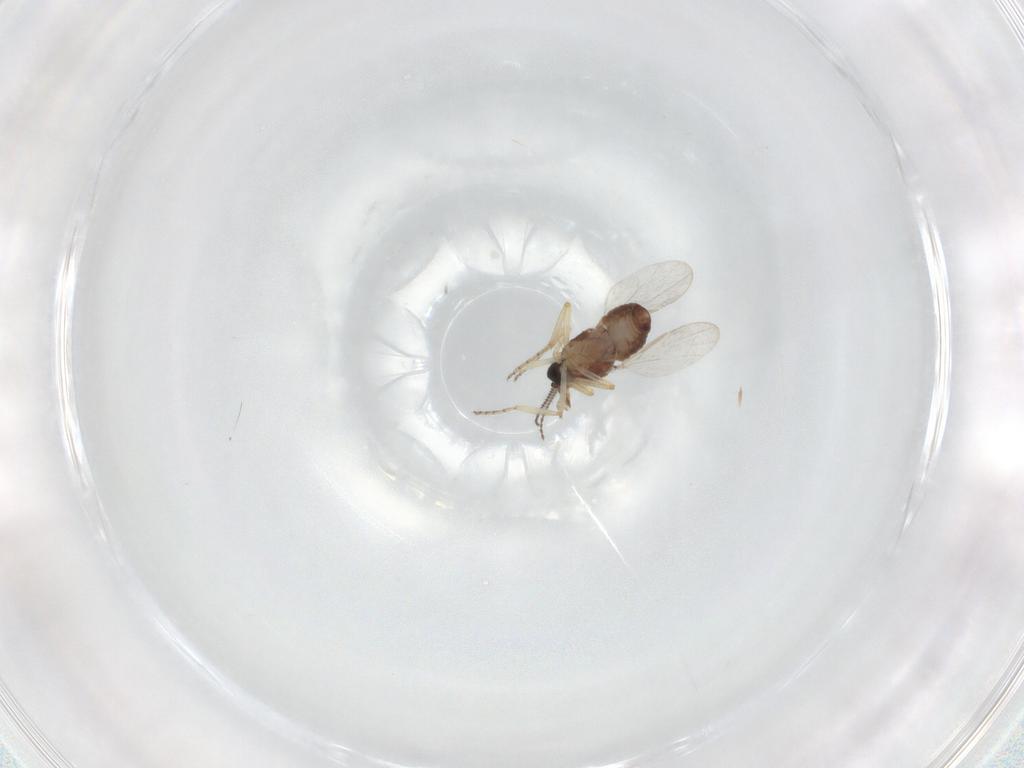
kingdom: Animalia
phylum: Arthropoda
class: Insecta
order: Diptera
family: Ceratopogonidae
